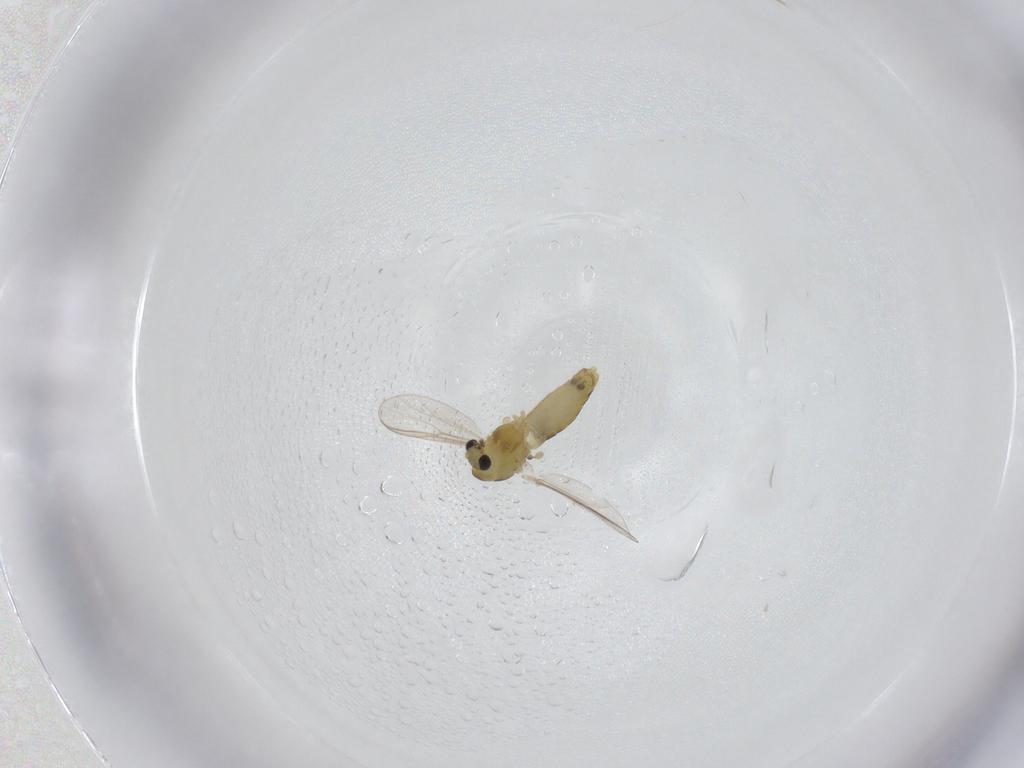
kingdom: Animalia
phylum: Arthropoda
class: Insecta
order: Diptera
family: Chironomidae
